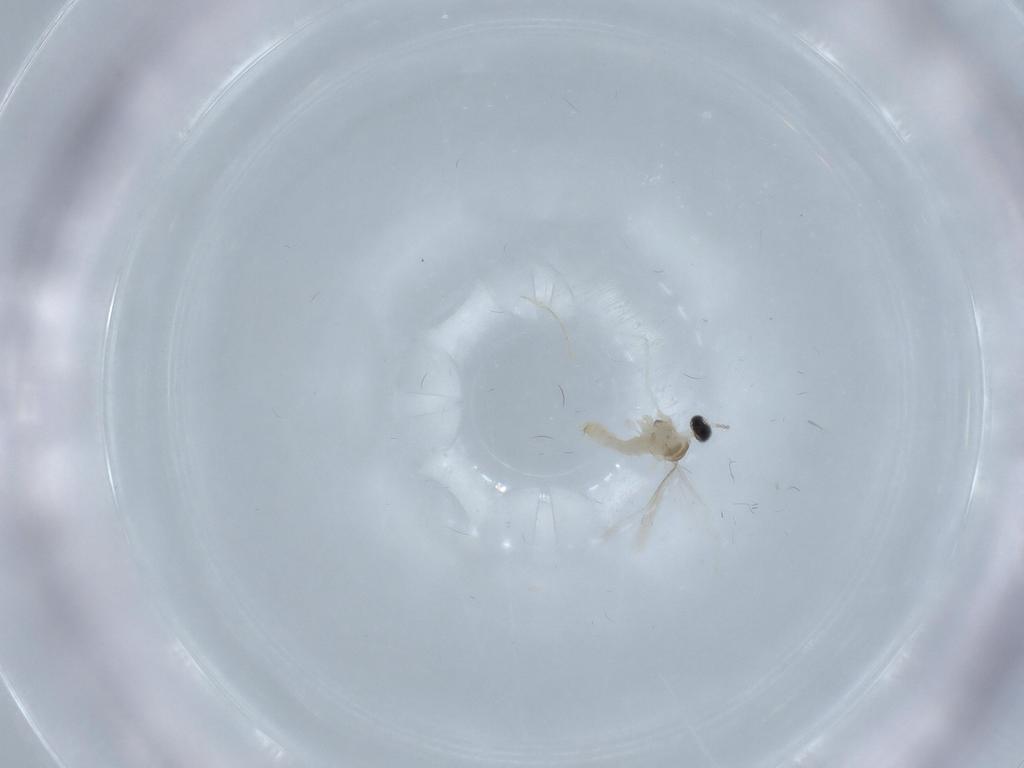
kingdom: Animalia
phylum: Arthropoda
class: Insecta
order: Diptera
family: Cecidomyiidae
